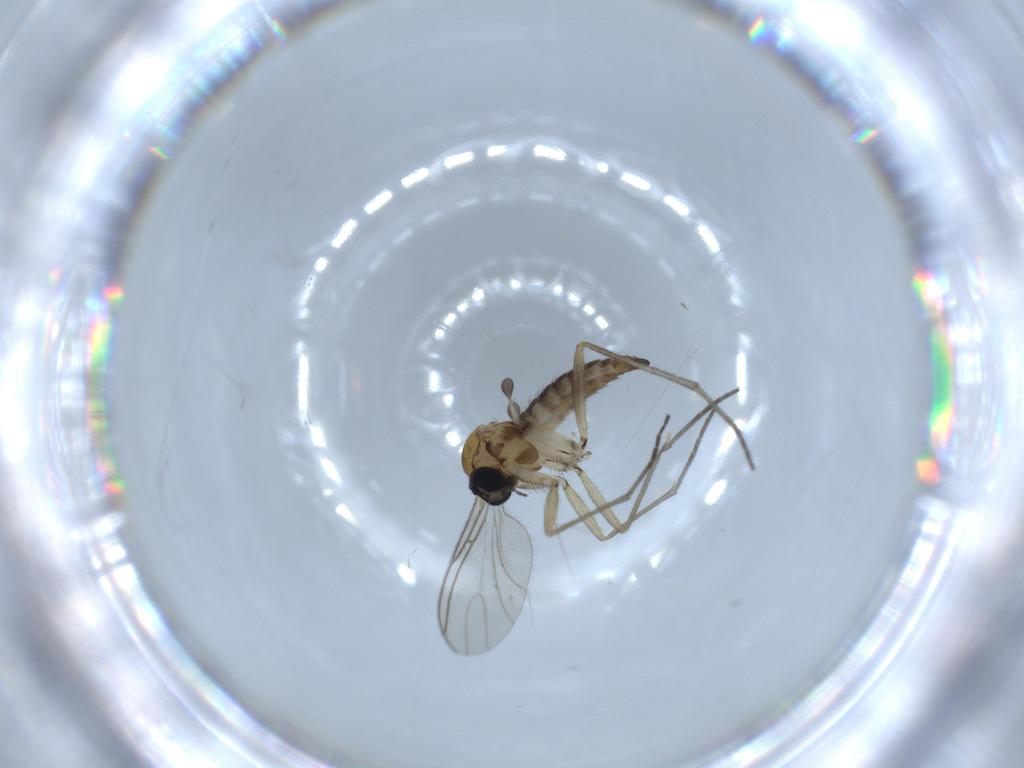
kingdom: Animalia
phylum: Arthropoda
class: Insecta
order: Diptera
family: Sciaridae
